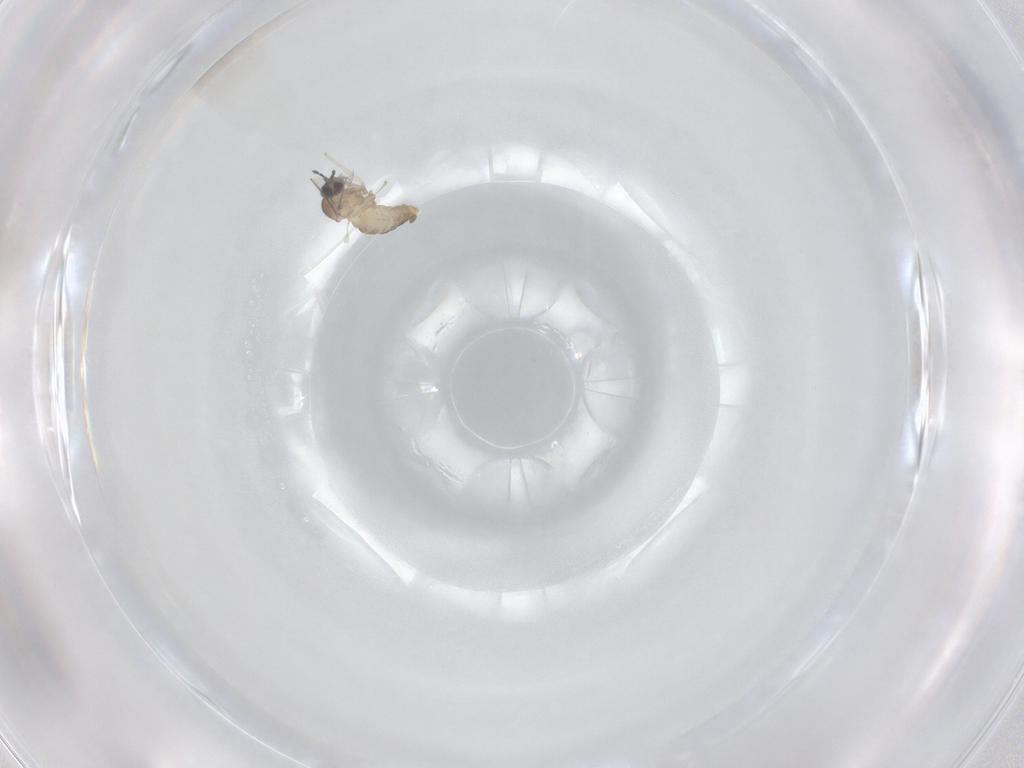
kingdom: Animalia
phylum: Arthropoda
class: Insecta
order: Diptera
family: Cecidomyiidae
